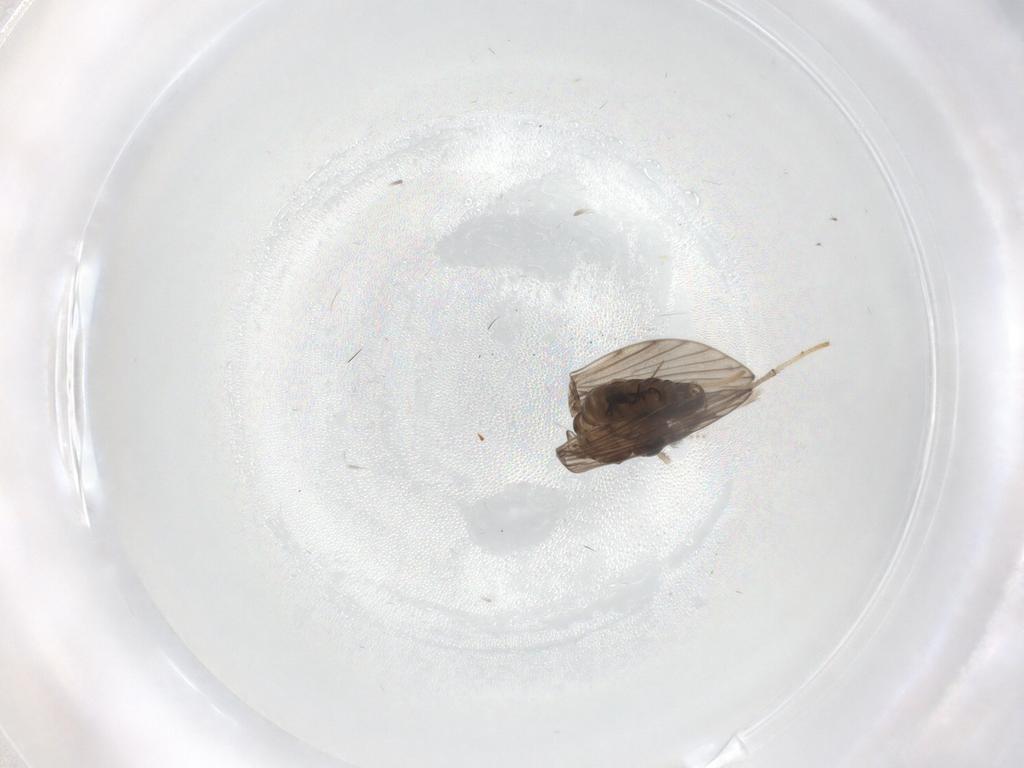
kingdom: Animalia
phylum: Arthropoda
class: Insecta
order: Diptera
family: Psychodidae
